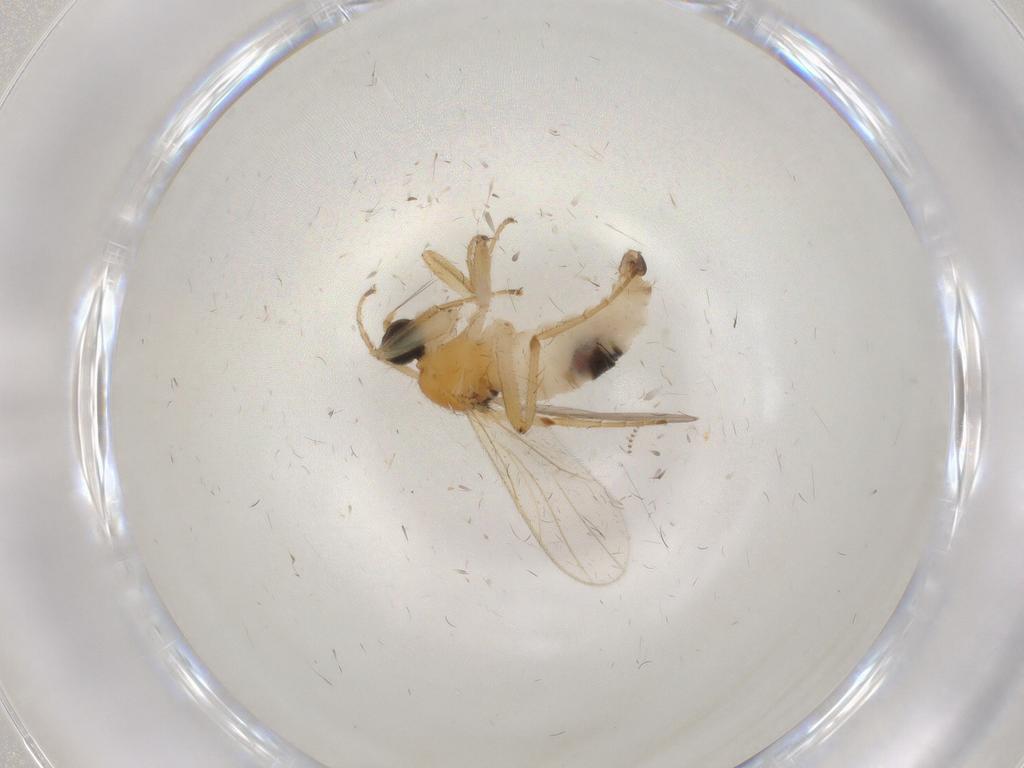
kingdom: Animalia
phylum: Arthropoda
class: Insecta
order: Diptera
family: Hybotidae
